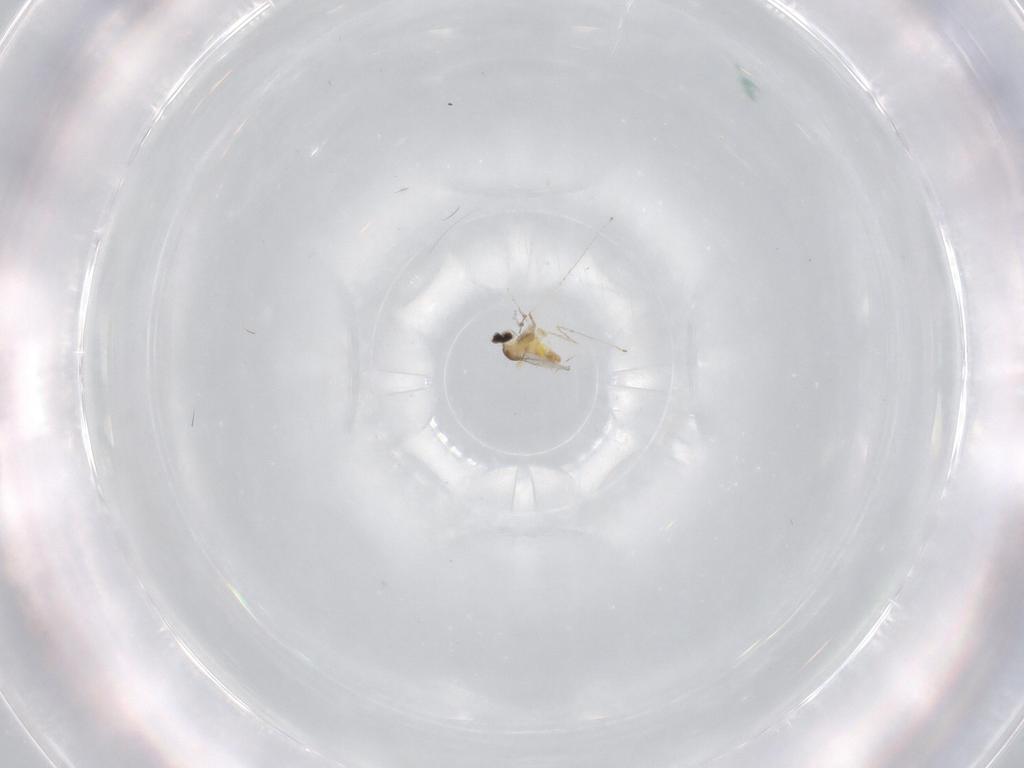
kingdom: Animalia
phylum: Arthropoda
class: Insecta
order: Diptera
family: Cecidomyiidae
